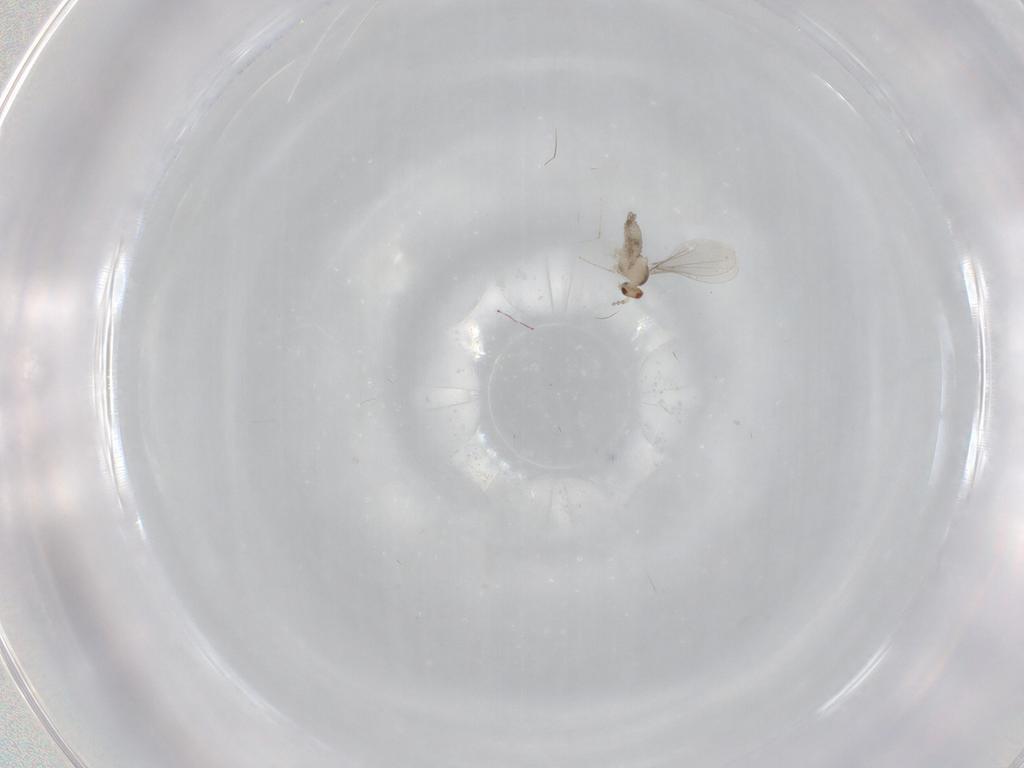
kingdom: Animalia
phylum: Arthropoda
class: Insecta
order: Diptera
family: Cecidomyiidae
